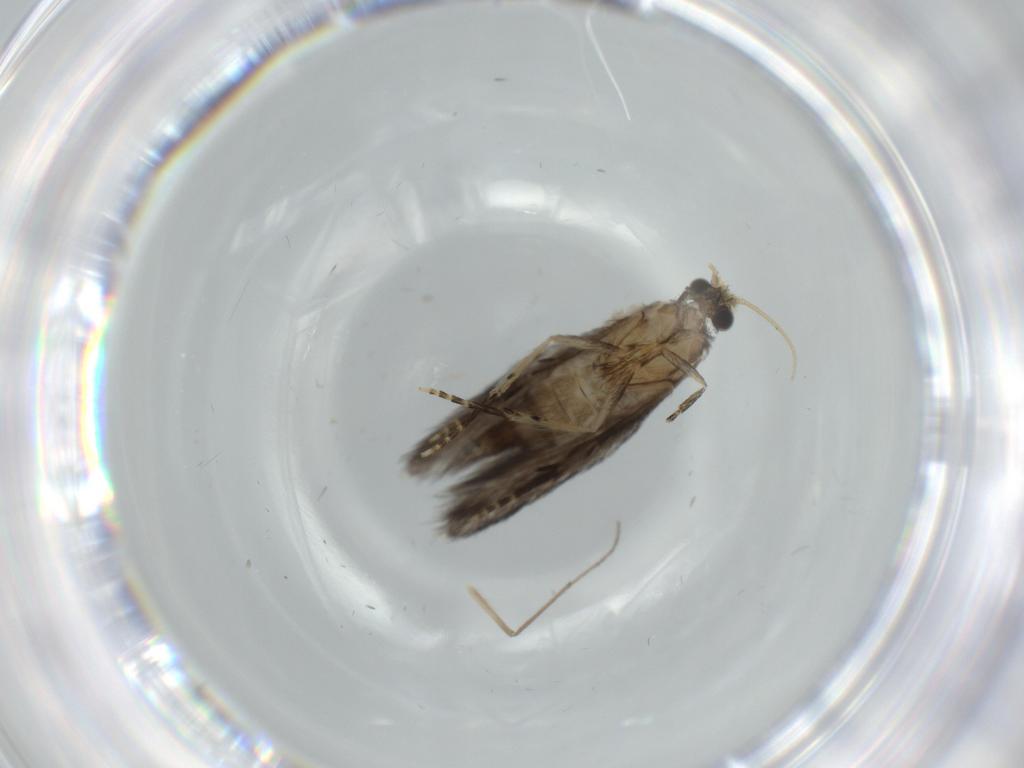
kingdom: Animalia
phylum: Arthropoda
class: Insecta
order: Trichoptera
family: Hydroptilidae
